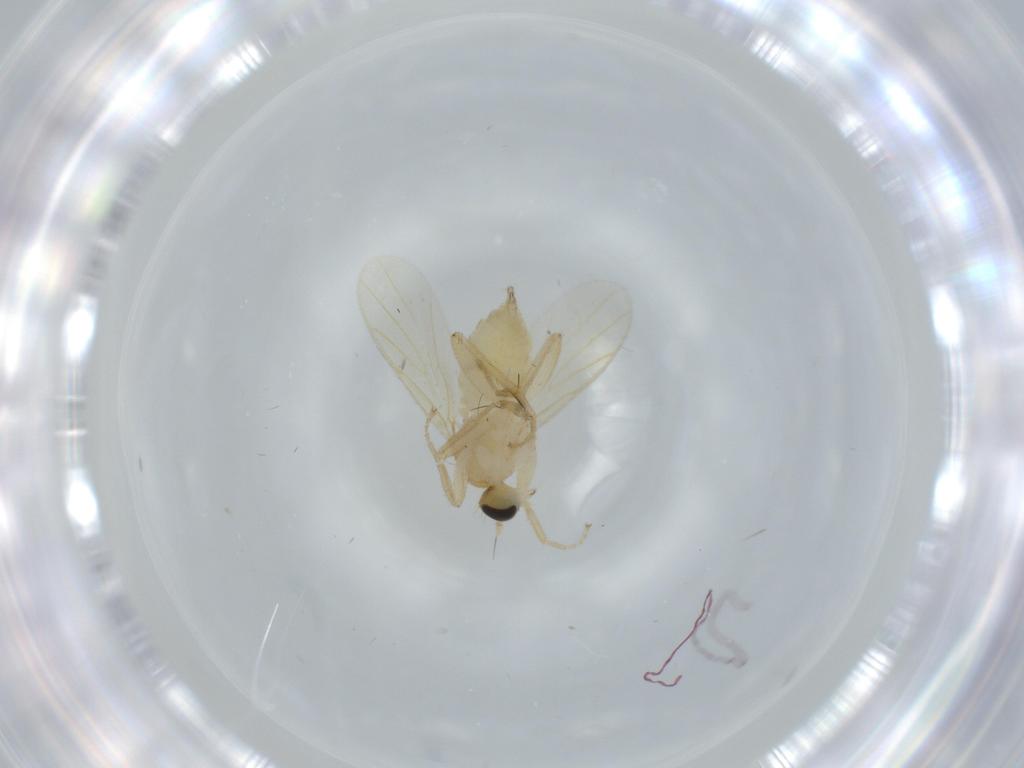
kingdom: Animalia
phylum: Arthropoda
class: Insecta
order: Diptera
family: Hybotidae
